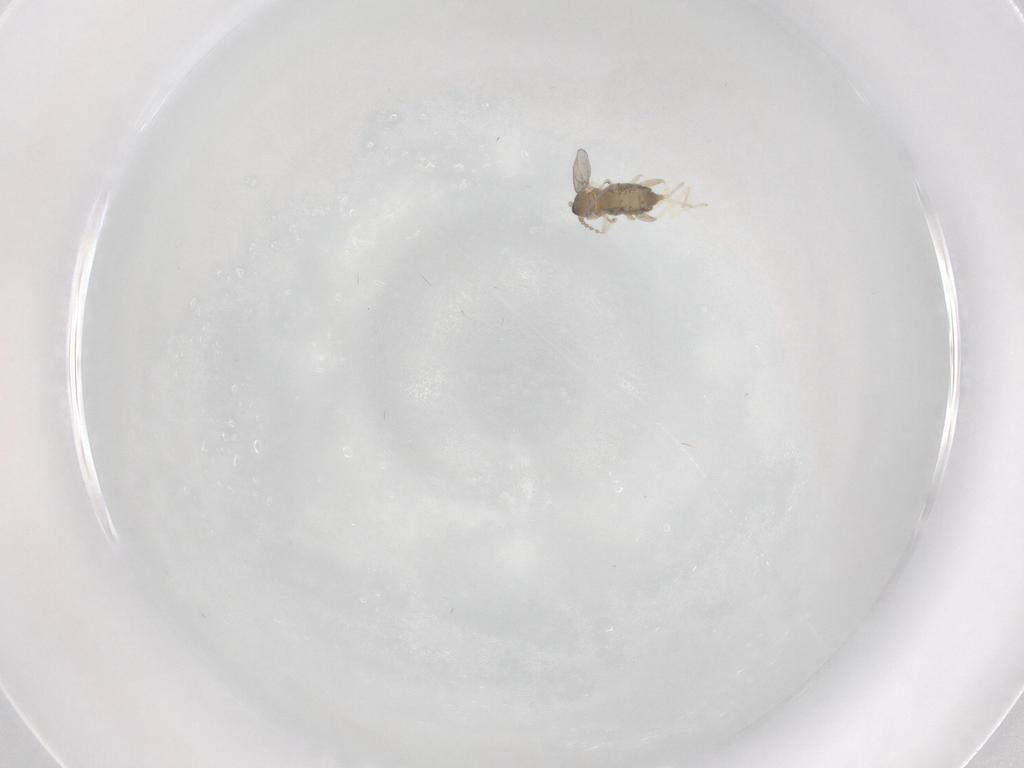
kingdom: Animalia
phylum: Arthropoda
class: Insecta
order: Diptera
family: Cecidomyiidae
